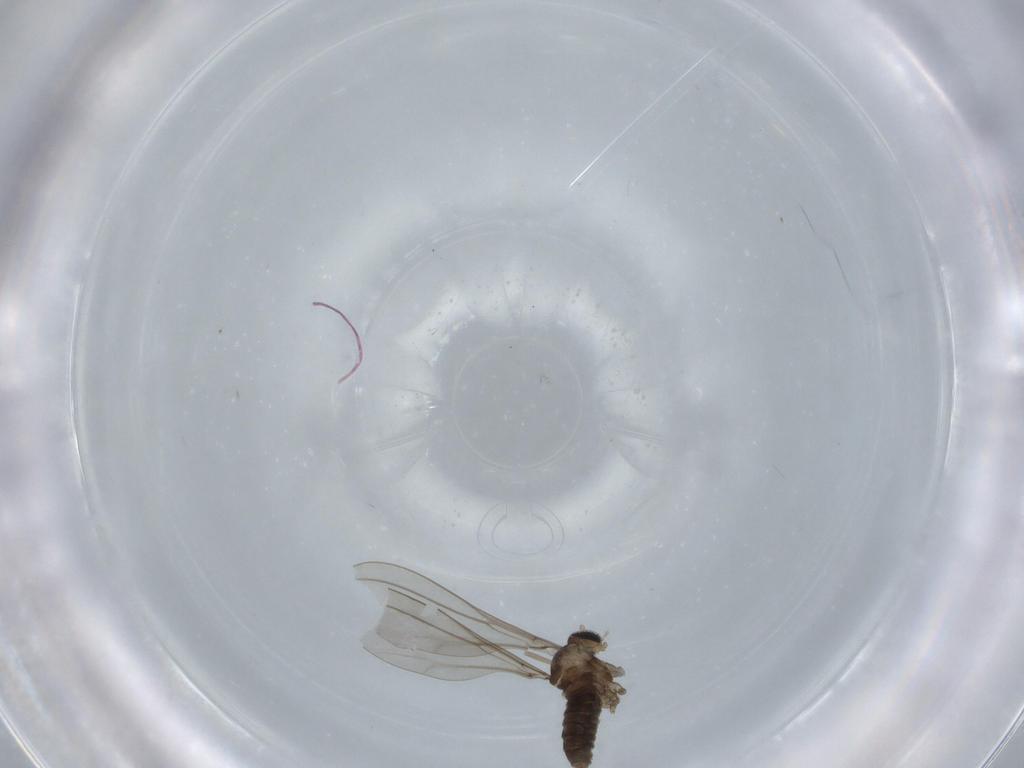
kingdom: Animalia
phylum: Arthropoda
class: Insecta
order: Diptera
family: Cecidomyiidae
